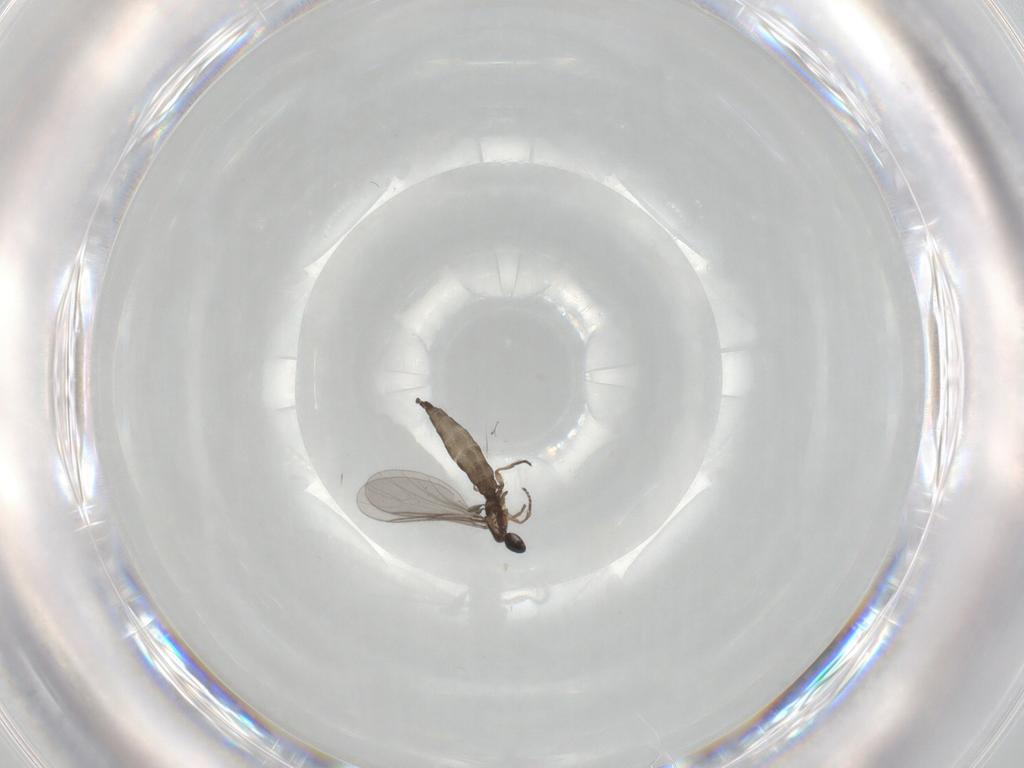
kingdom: Animalia
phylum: Arthropoda
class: Insecta
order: Diptera
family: Sciaridae
